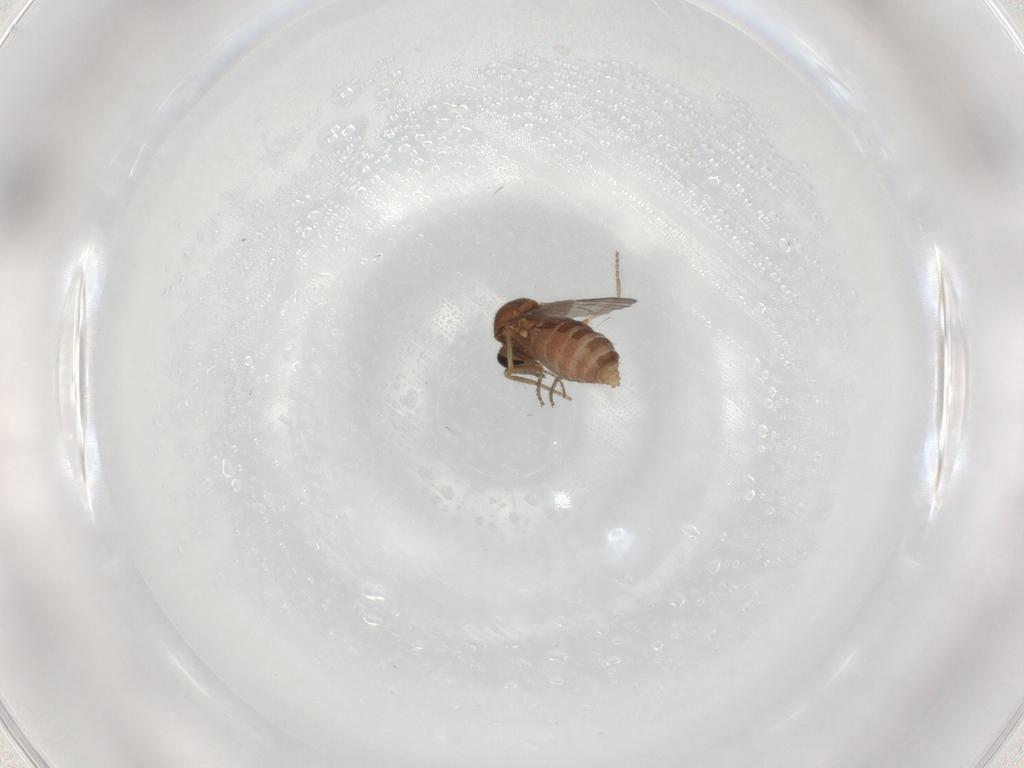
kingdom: Animalia
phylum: Arthropoda
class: Insecta
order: Diptera
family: Ceratopogonidae
